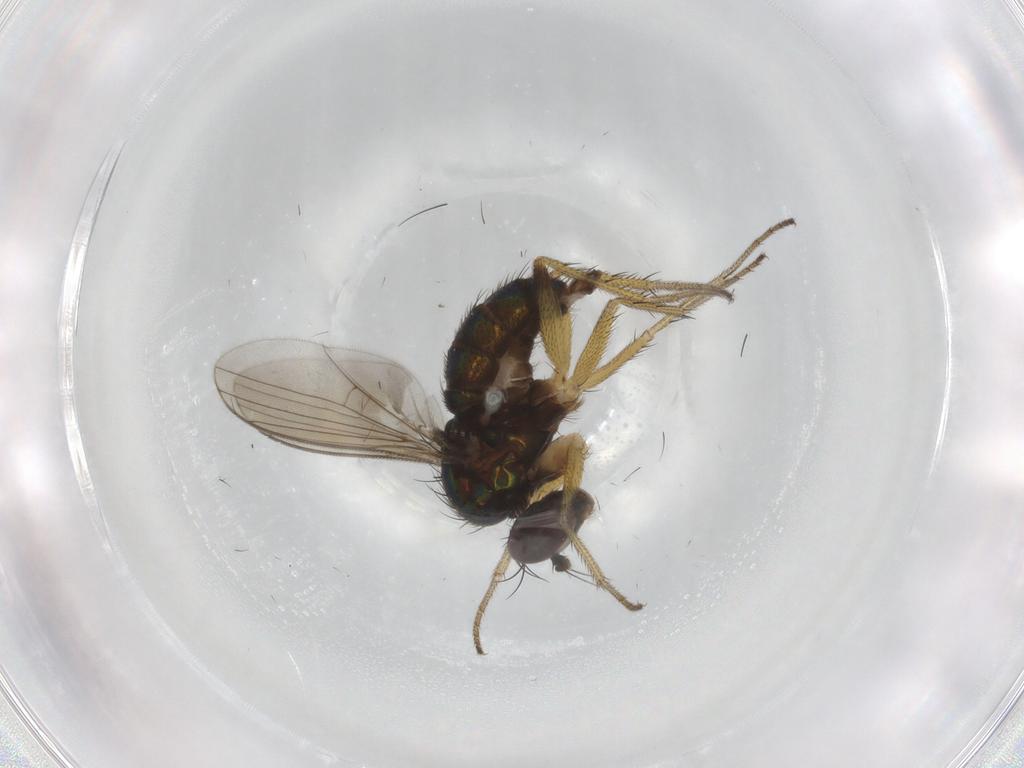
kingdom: Animalia
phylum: Arthropoda
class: Insecta
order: Diptera
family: Dolichopodidae
